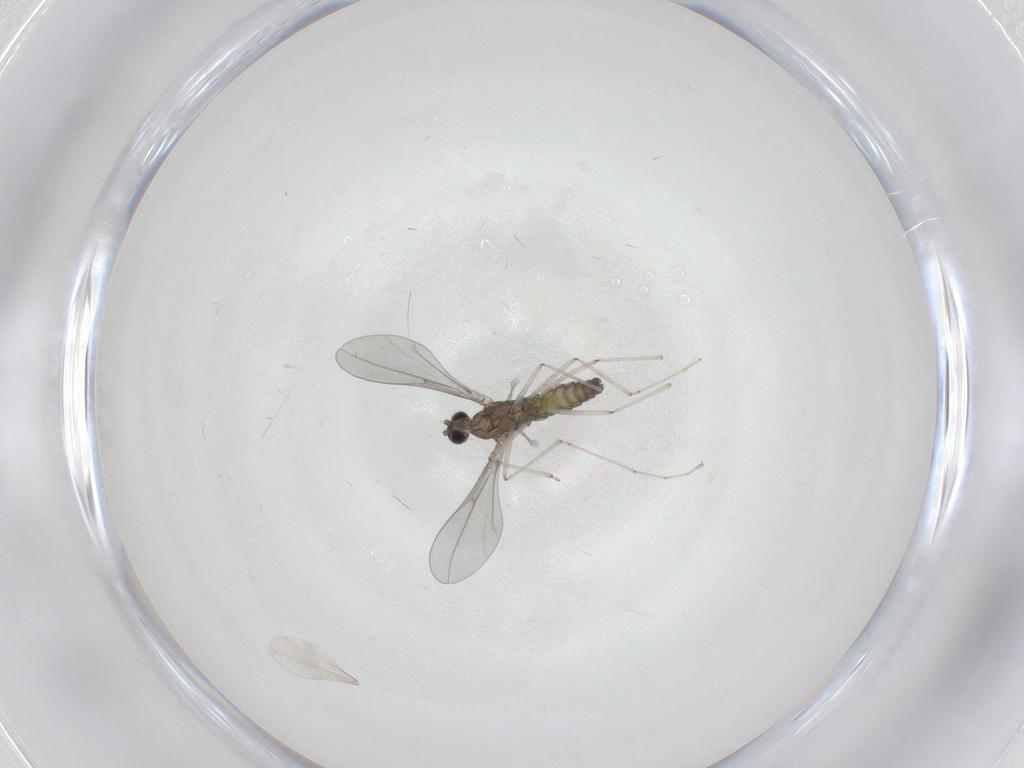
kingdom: Animalia
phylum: Arthropoda
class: Insecta
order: Diptera
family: Cecidomyiidae
